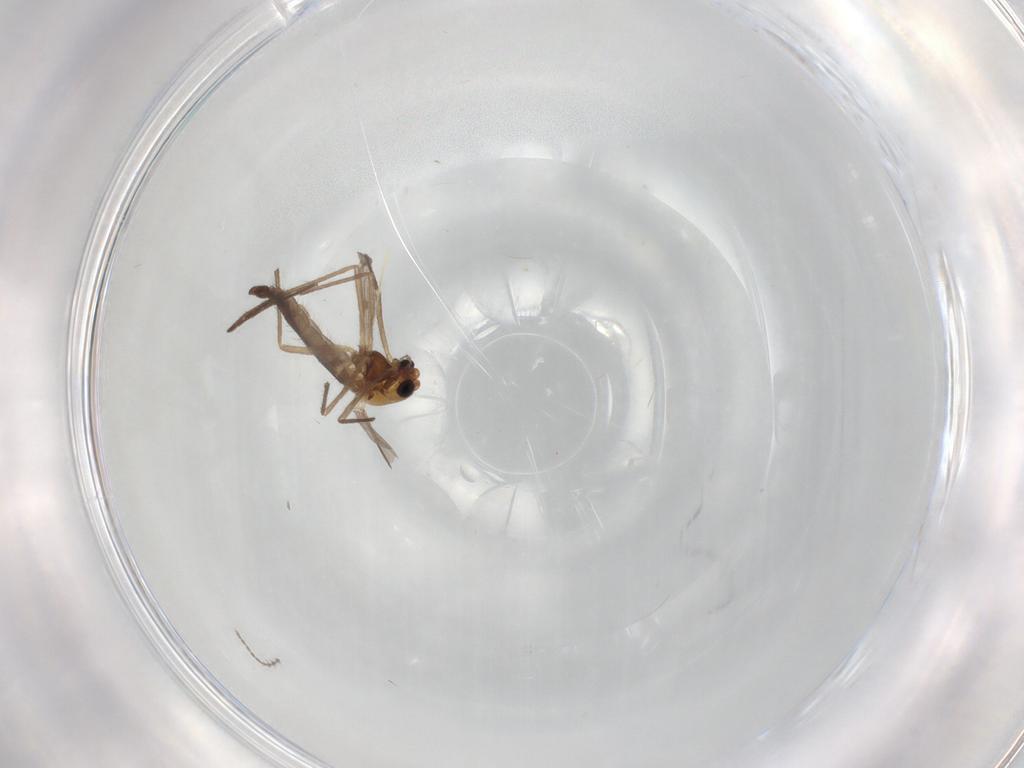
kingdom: Animalia
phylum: Arthropoda
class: Insecta
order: Diptera
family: Chironomidae
